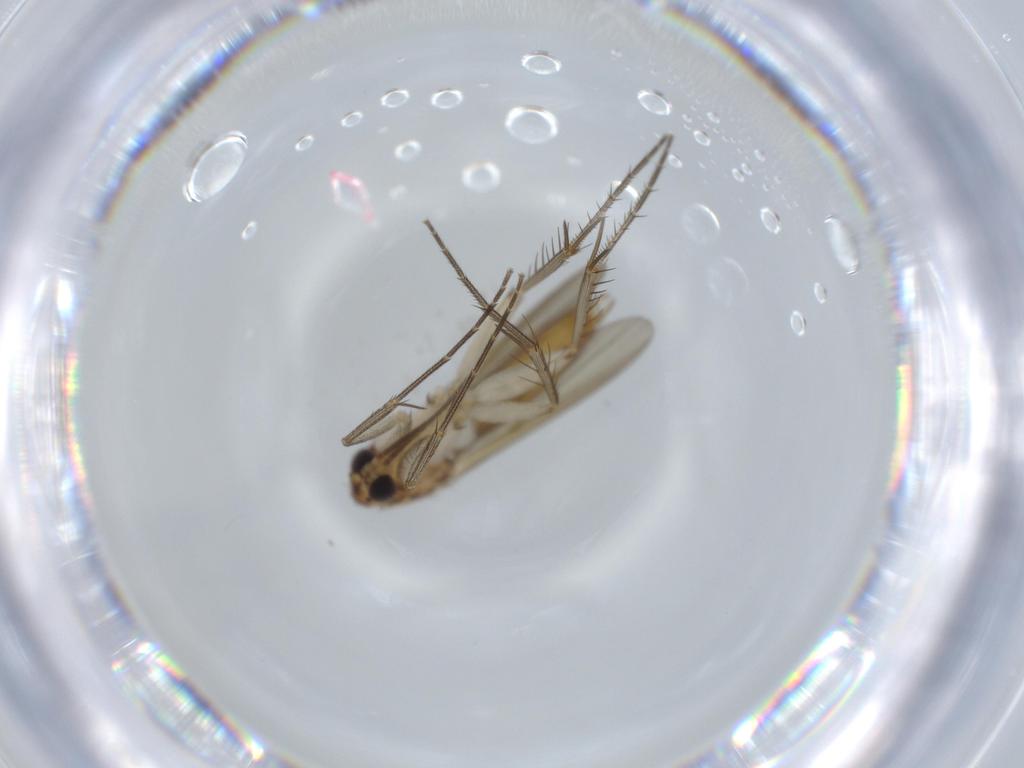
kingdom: Animalia
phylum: Arthropoda
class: Insecta
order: Diptera
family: Mycetophilidae
